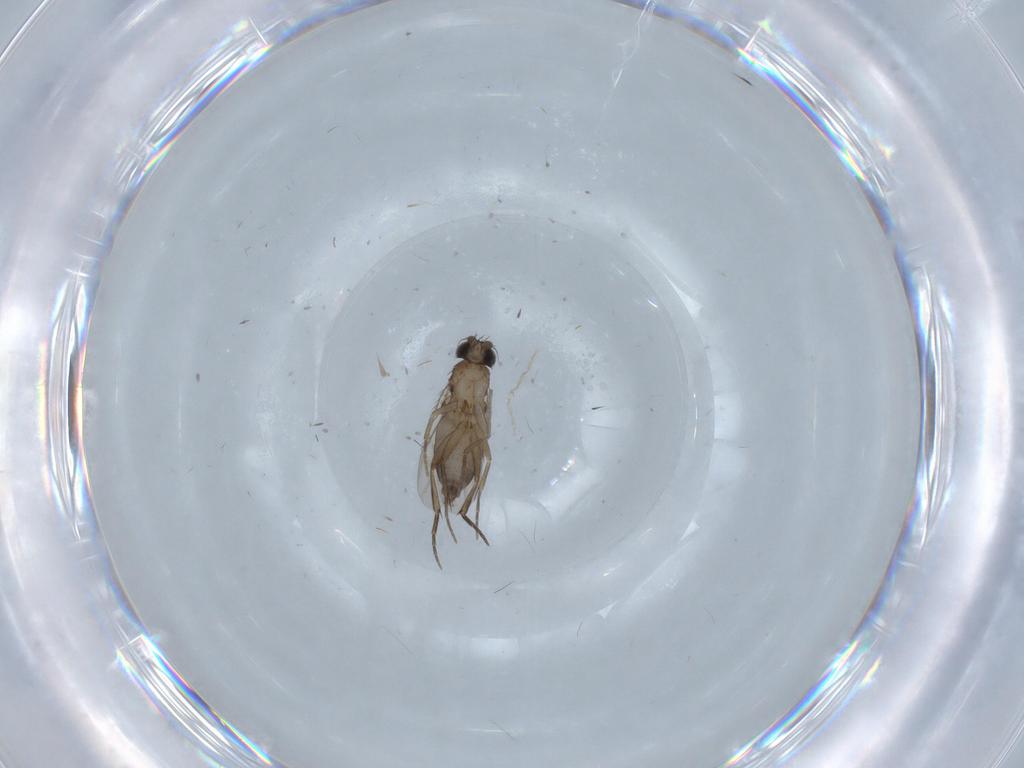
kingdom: Animalia
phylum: Arthropoda
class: Insecta
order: Diptera
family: Phoridae
